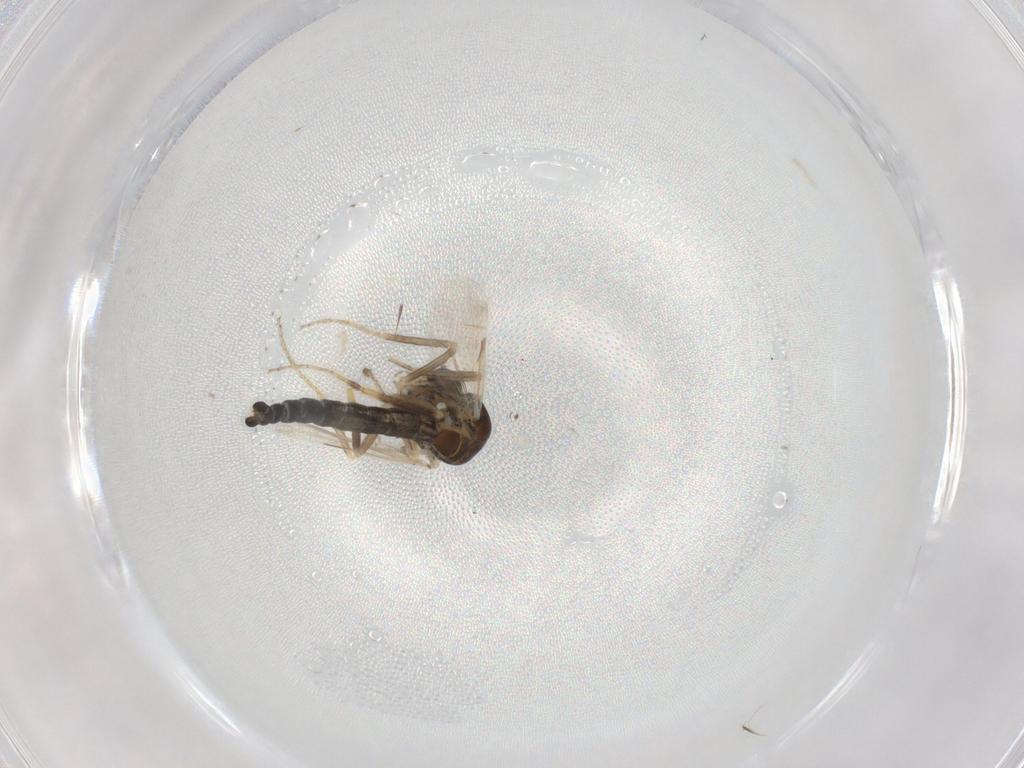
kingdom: Animalia
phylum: Arthropoda
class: Insecta
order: Diptera
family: Ceratopogonidae
